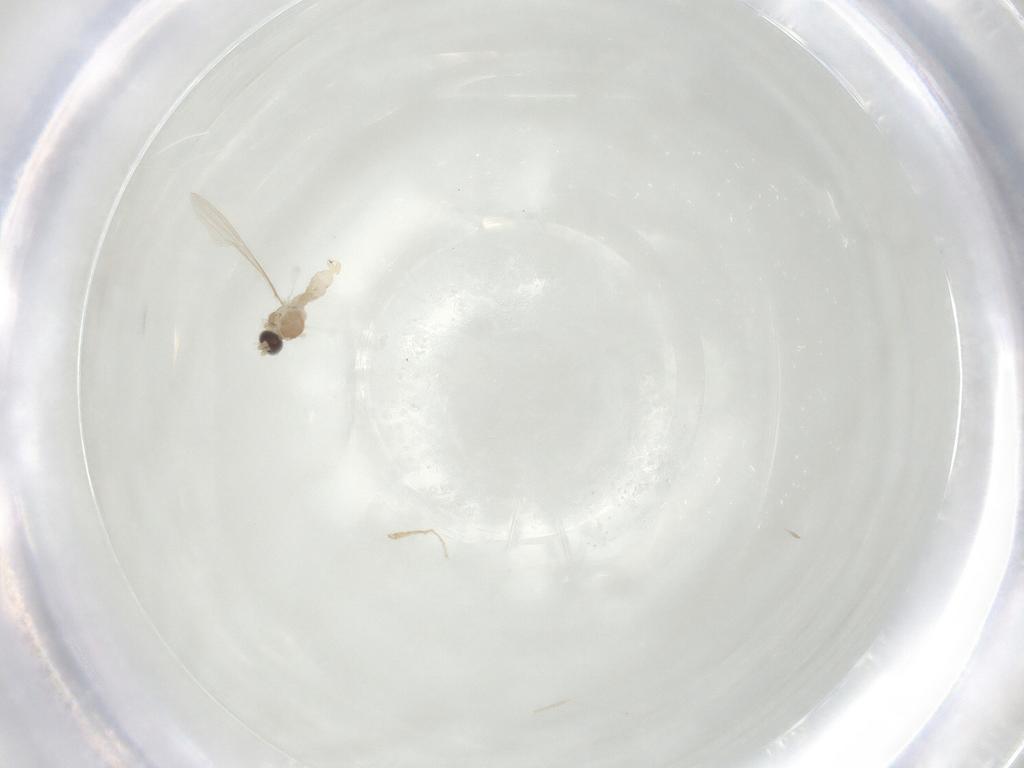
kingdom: Animalia
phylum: Arthropoda
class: Insecta
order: Diptera
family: Cecidomyiidae
